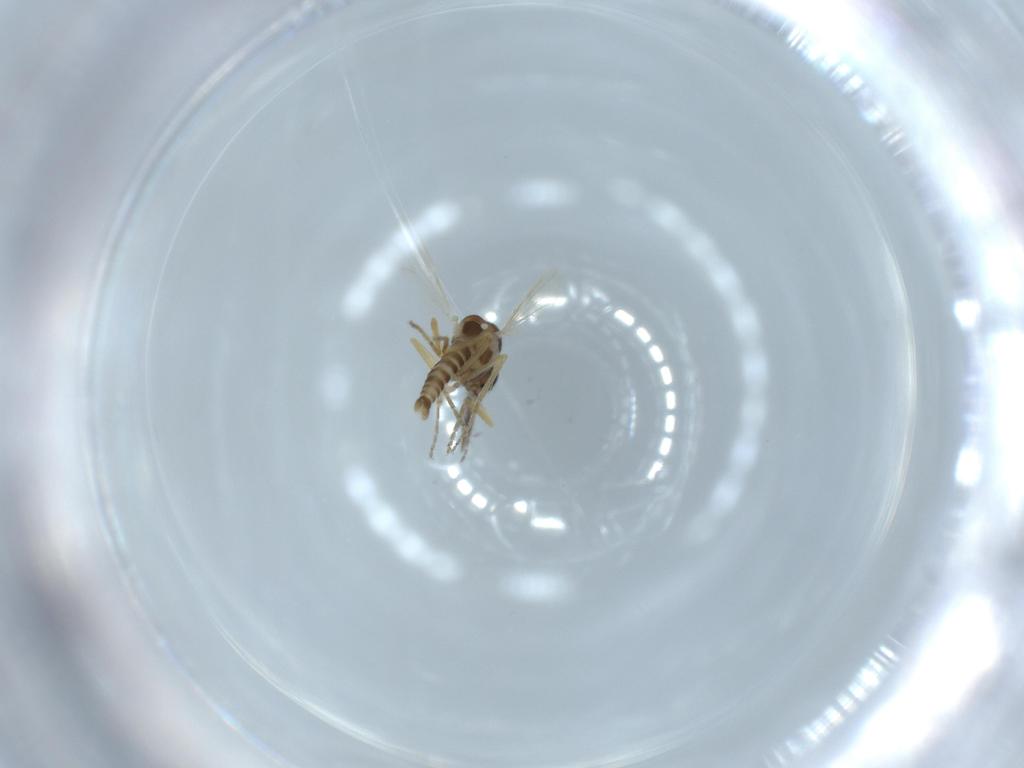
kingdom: Animalia
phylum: Arthropoda
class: Insecta
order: Diptera
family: Ceratopogonidae
